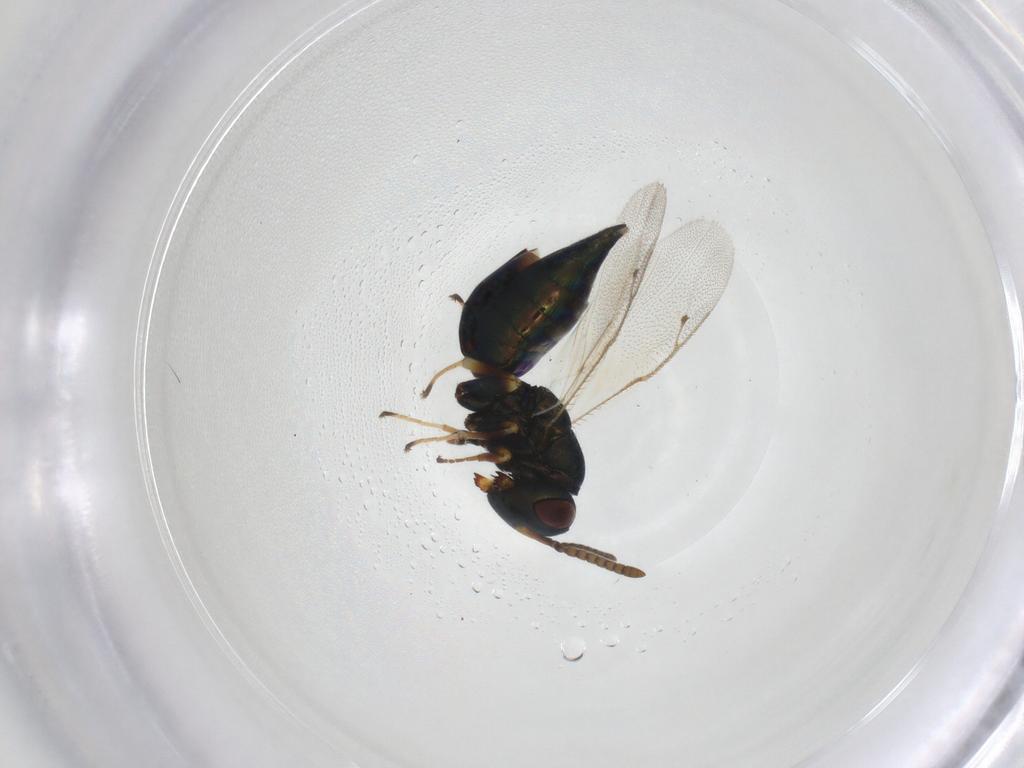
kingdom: Animalia
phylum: Arthropoda
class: Insecta
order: Hymenoptera
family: Pteromalidae
